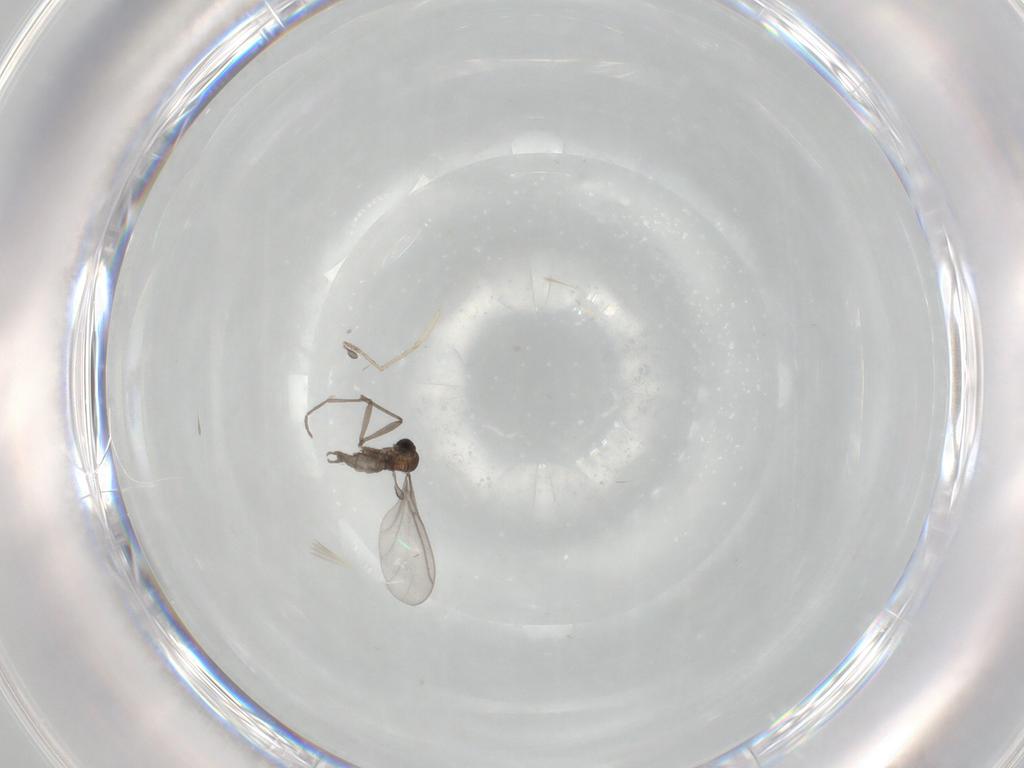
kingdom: Animalia
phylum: Arthropoda
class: Insecta
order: Diptera
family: Sciaridae
